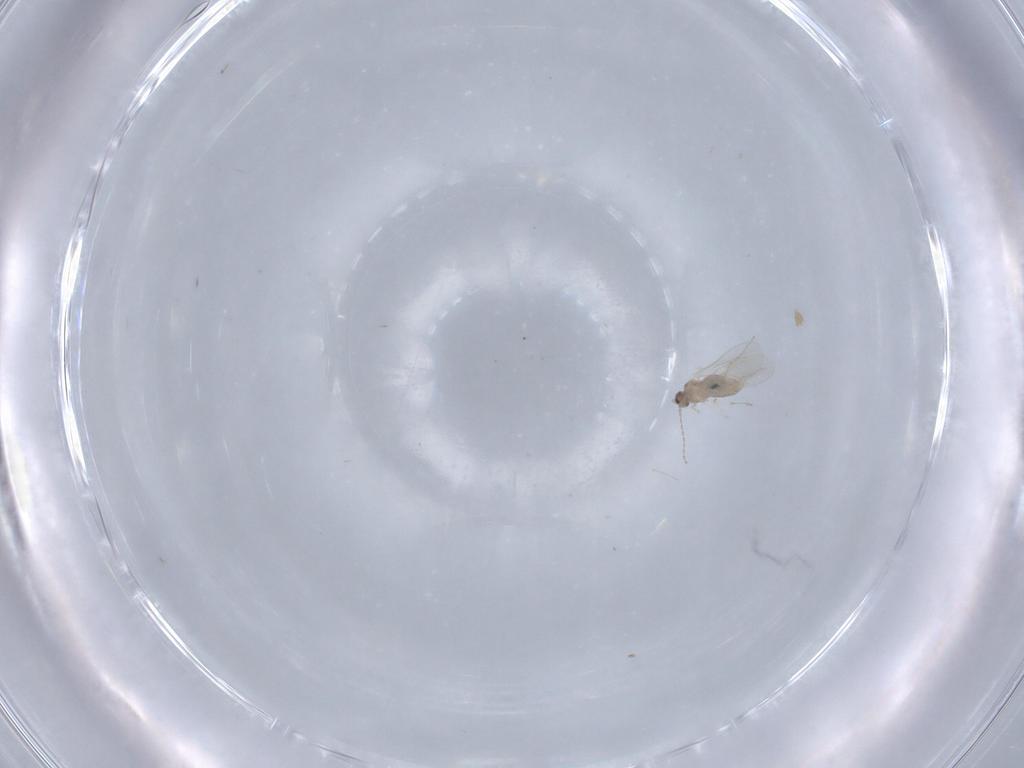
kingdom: Animalia
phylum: Arthropoda
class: Insecta
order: Diptera
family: Cecidomyiidae
